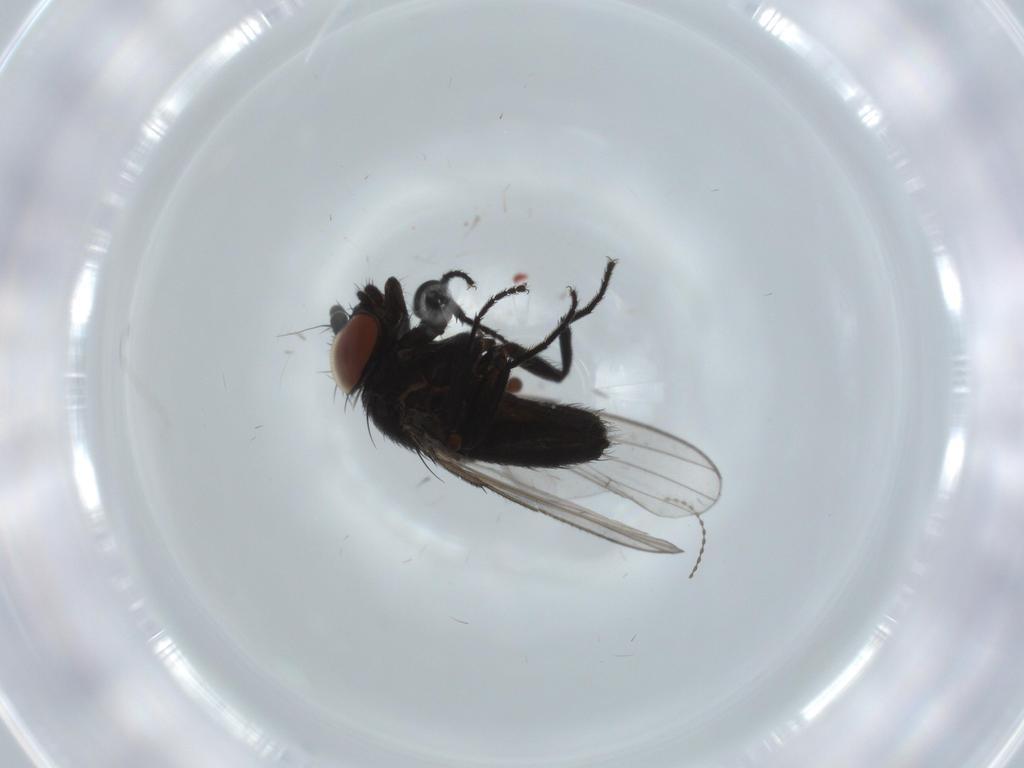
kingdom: Animalia
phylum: Arthropoda
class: Insecta
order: Diptera
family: Milichiidae
